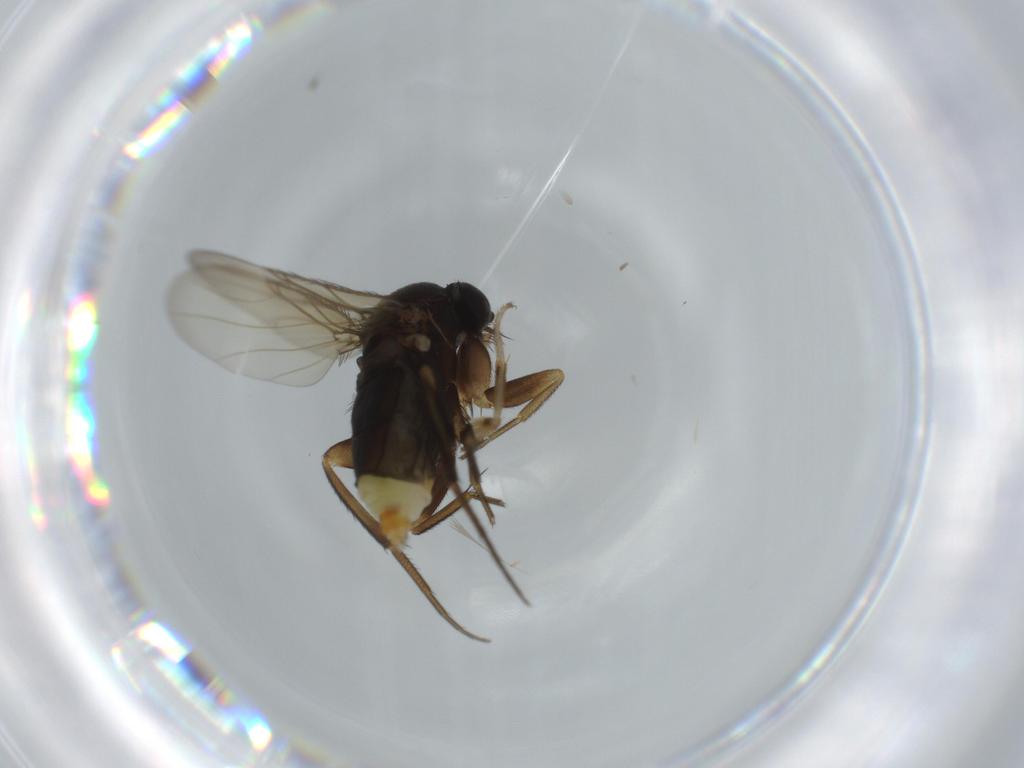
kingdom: Animalia
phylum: Arthropoda
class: Insecta
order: Diptera
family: Clusiidae
